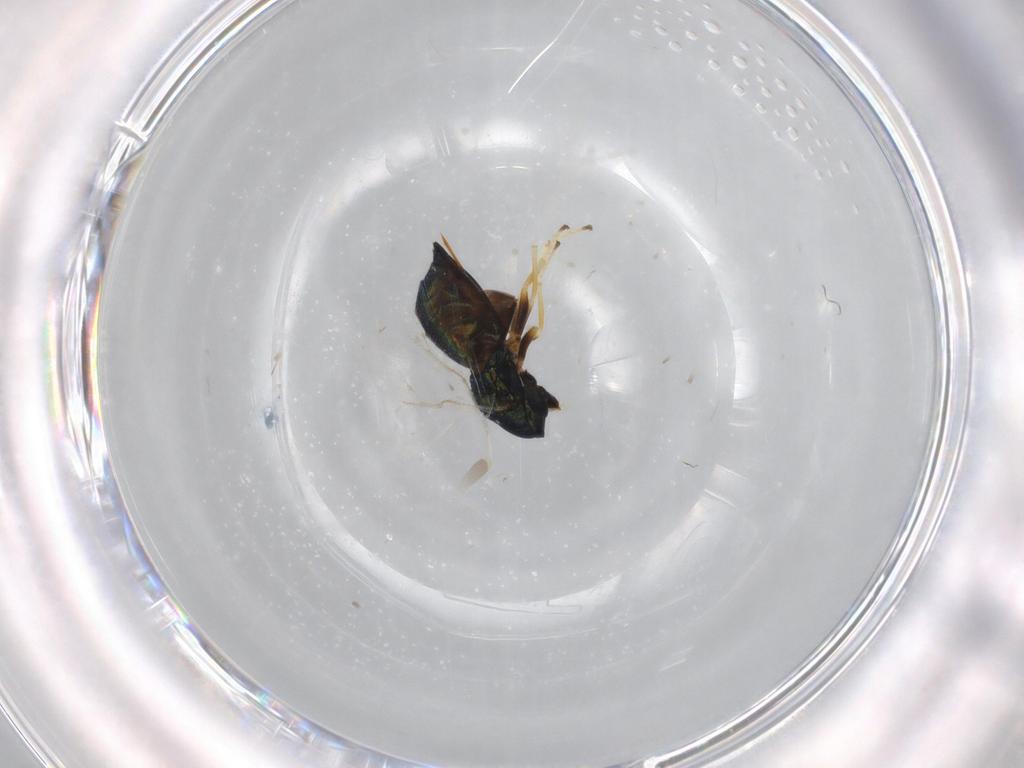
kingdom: Animalia
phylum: Arthropoda
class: Insecta
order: Hymenoptera
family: Pteromalidae
